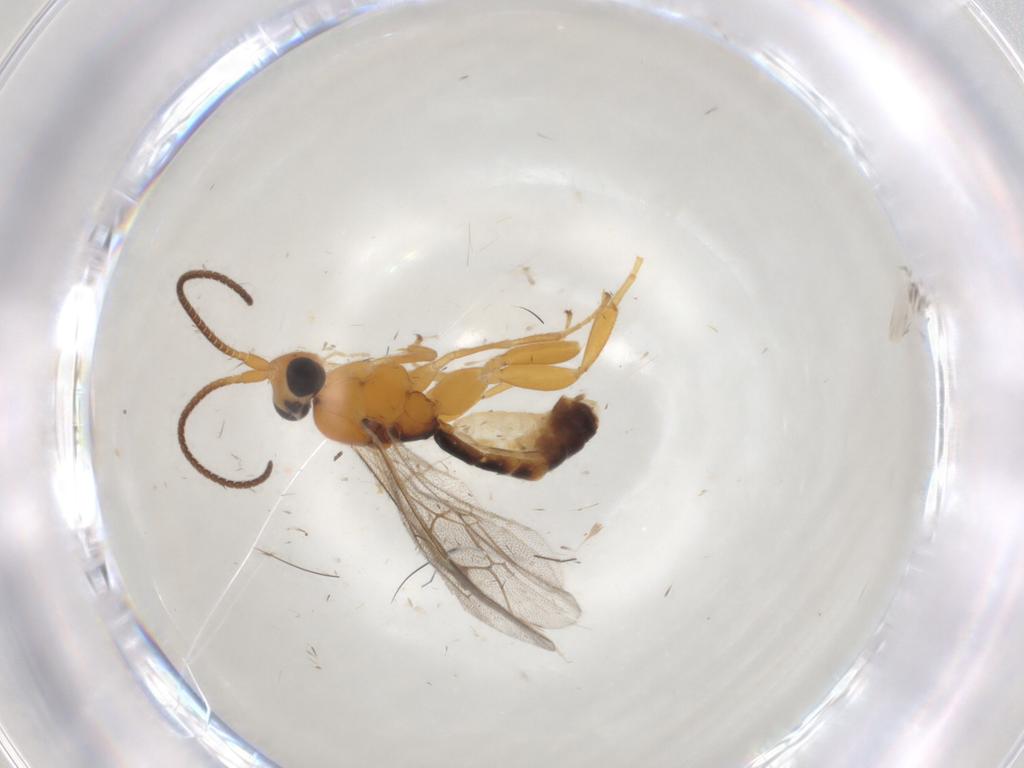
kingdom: Animalia
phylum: Arthropoda
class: Insecta
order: Hymenoptera
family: Ichneumonidae
